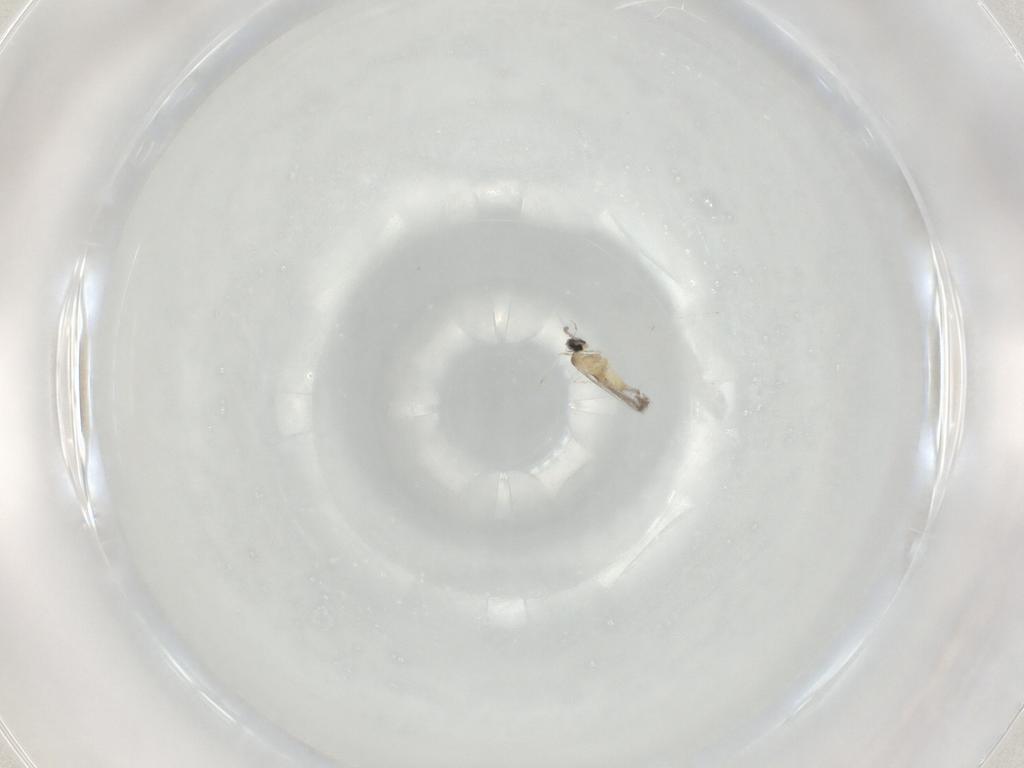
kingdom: Animalia
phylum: Arthropoda
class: Insecta
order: Diptera
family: Cecidomyiidae
